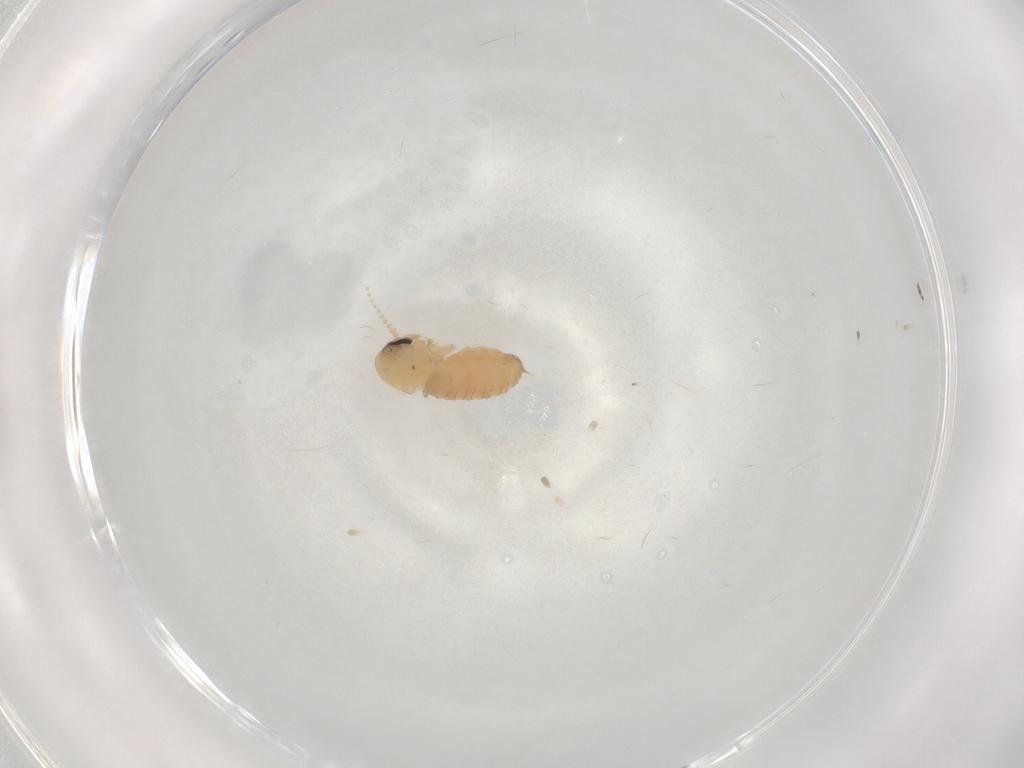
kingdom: Animalia
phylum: Arthropoda
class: Insecta
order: Diptera
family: Psychodidae
